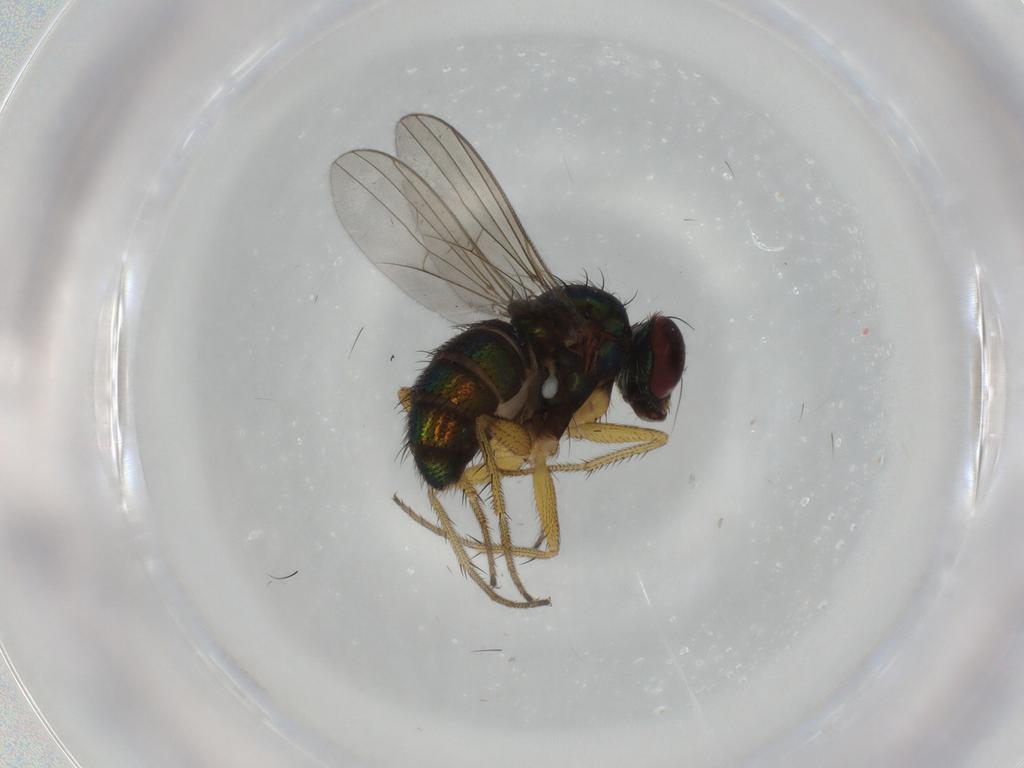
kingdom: Animalia
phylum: Arthropoda
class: Insecta
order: Diptera
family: Dolichopodidae
